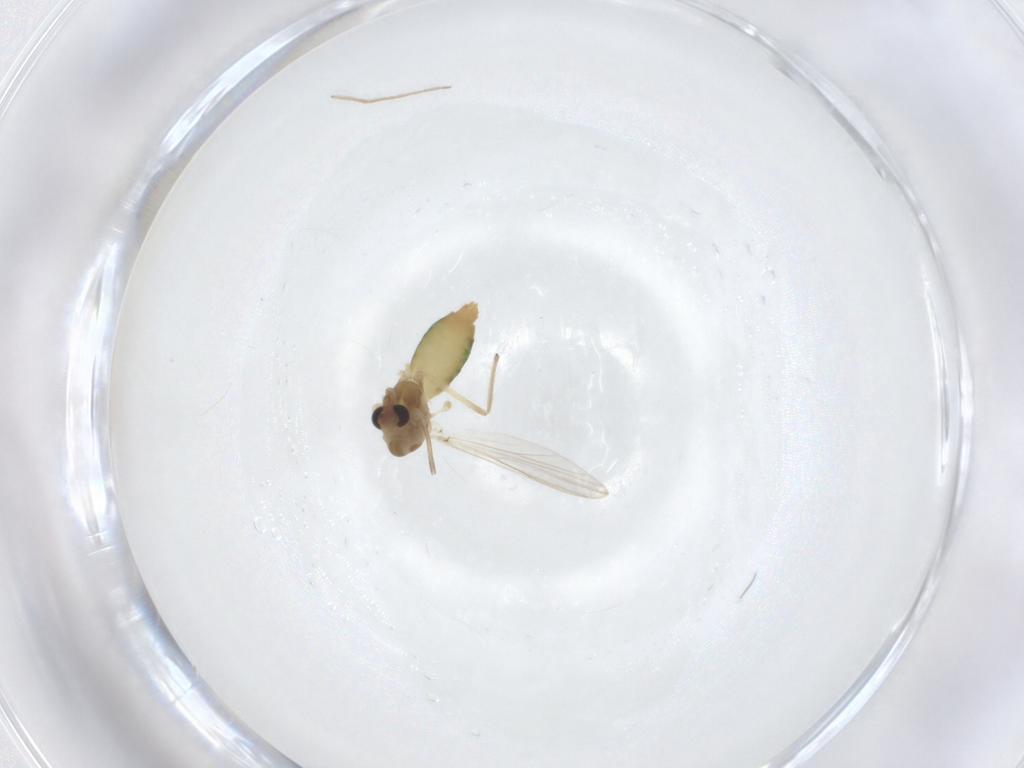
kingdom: Animalia
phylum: Arthropoda
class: Insecta
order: Diptera
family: Chironomidae
